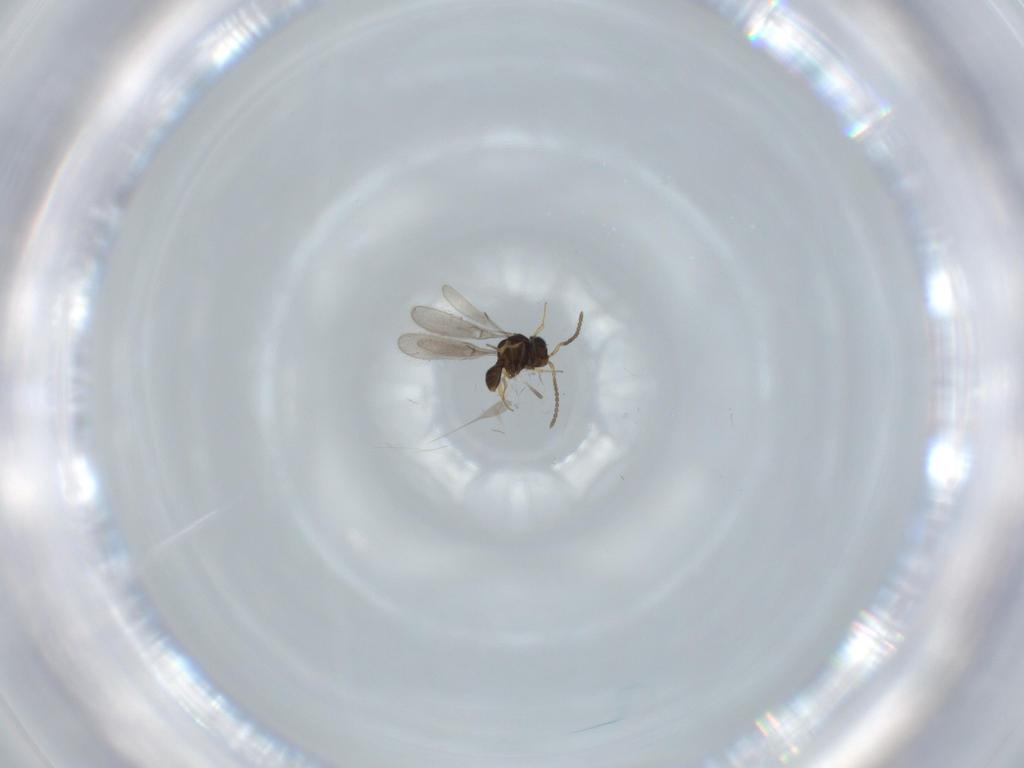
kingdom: Animalia
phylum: Arthropoda
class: Insecta
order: Hymenoptera
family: Scelionidae
